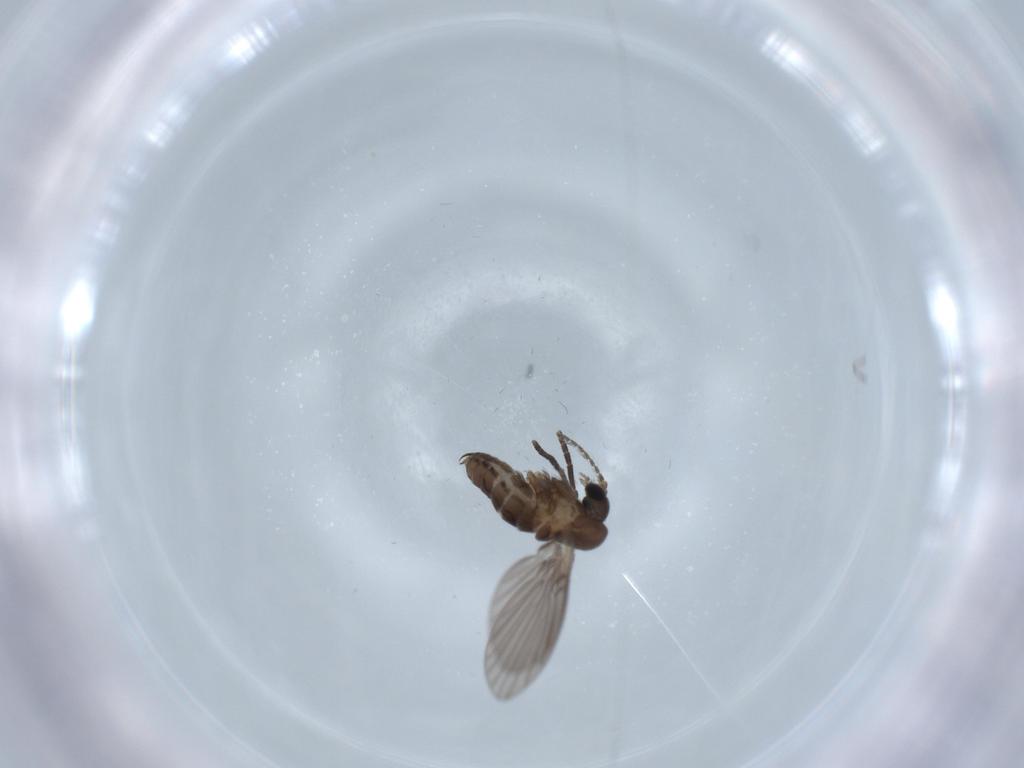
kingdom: Animalia
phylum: Arthropoda
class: Insecta
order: Diptera
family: Psychodidae
